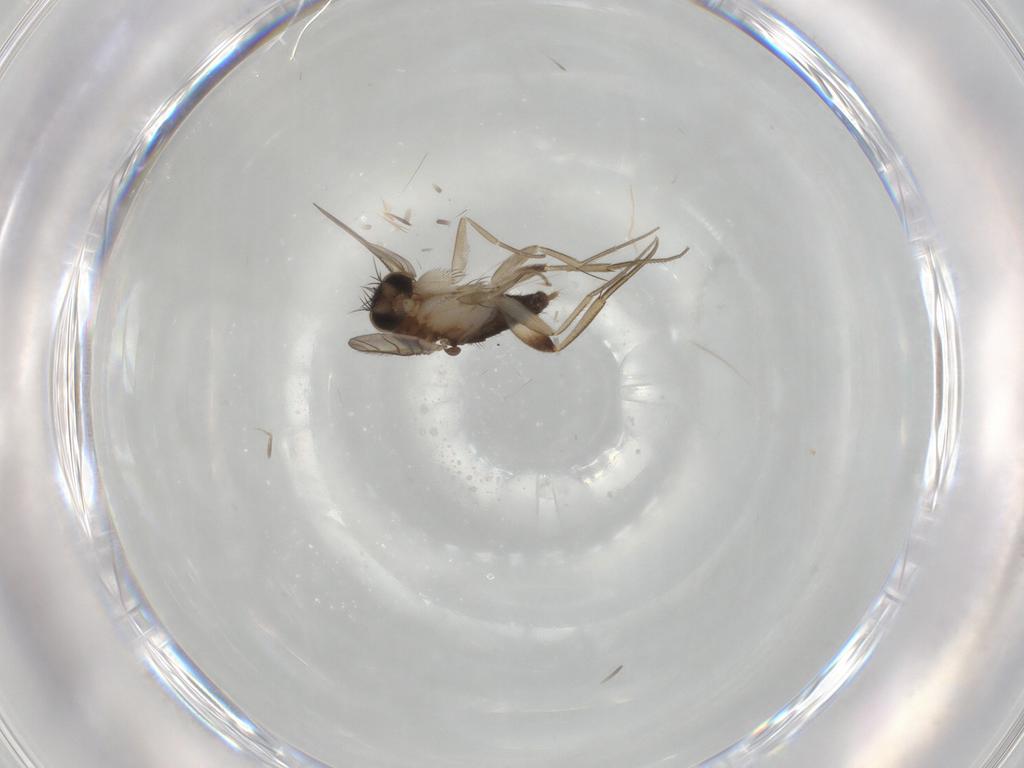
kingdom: Animalia
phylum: Arthropoda
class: Insecta
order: Diptera
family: Phoridae
